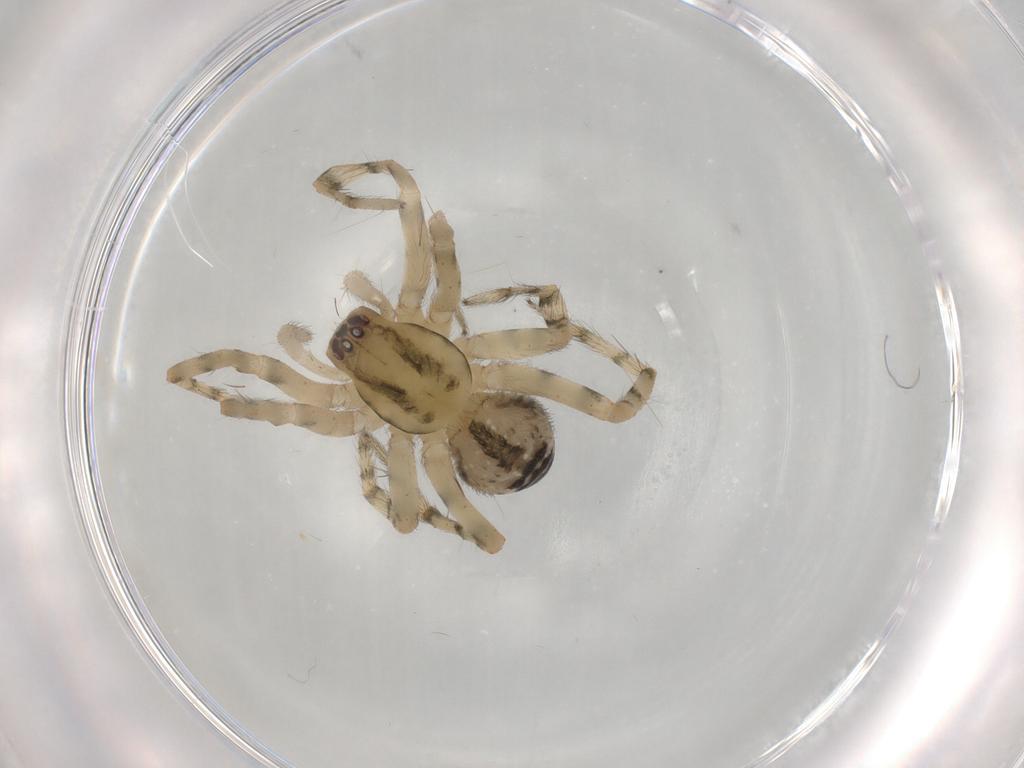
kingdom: Animalia
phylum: Arthropoda
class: Arachnida
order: Araneae
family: Amaurobiidae
